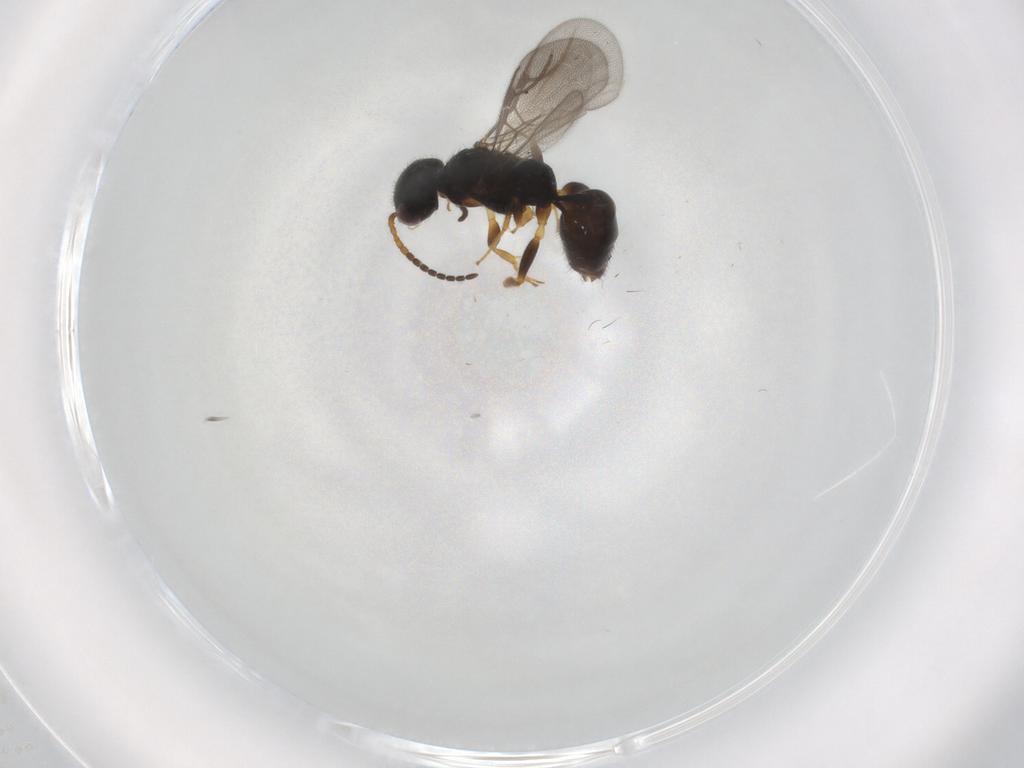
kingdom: Animalia
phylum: Arthropoda
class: Insecta
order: Hymenoptera
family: Bethylidae
